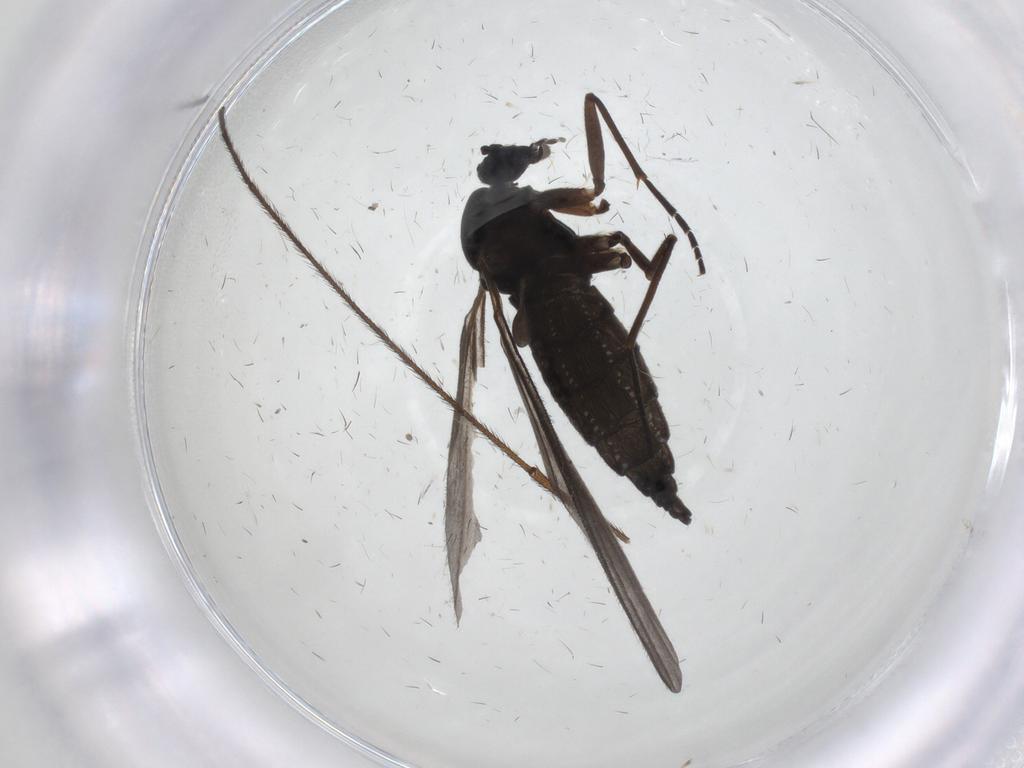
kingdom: Animalia
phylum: Arthropoda
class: Insecta
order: Diptera
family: Sciaridae
